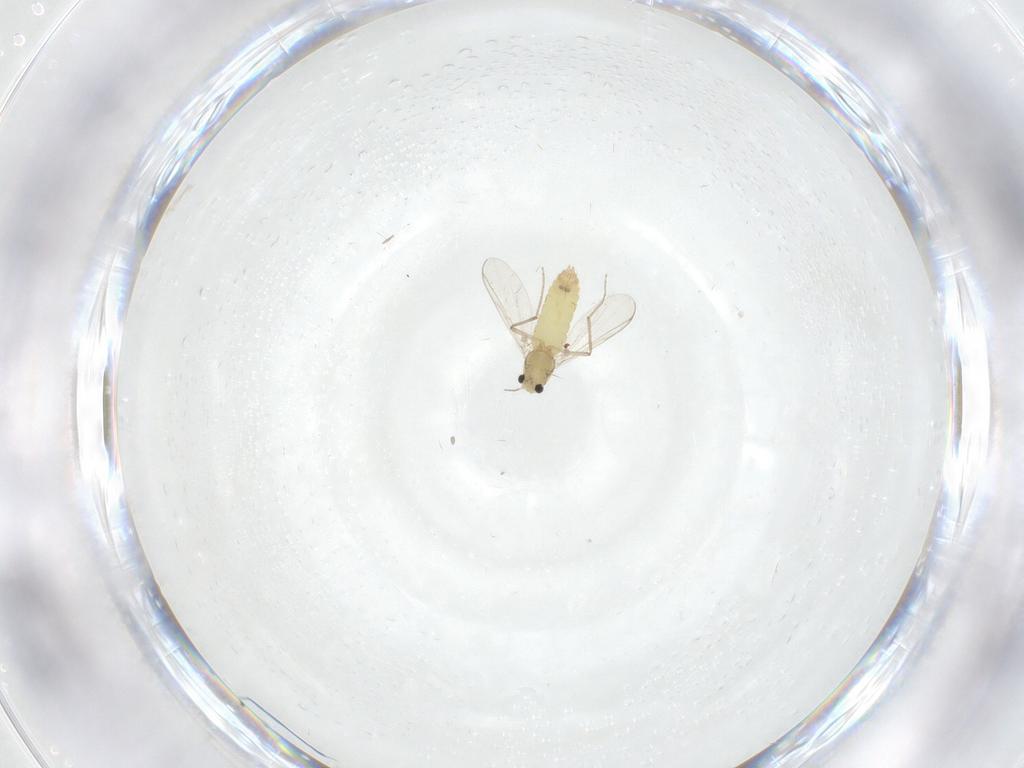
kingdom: Animalia
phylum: Arthropoda
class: Insecta
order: Diptera
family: Chironomidae
